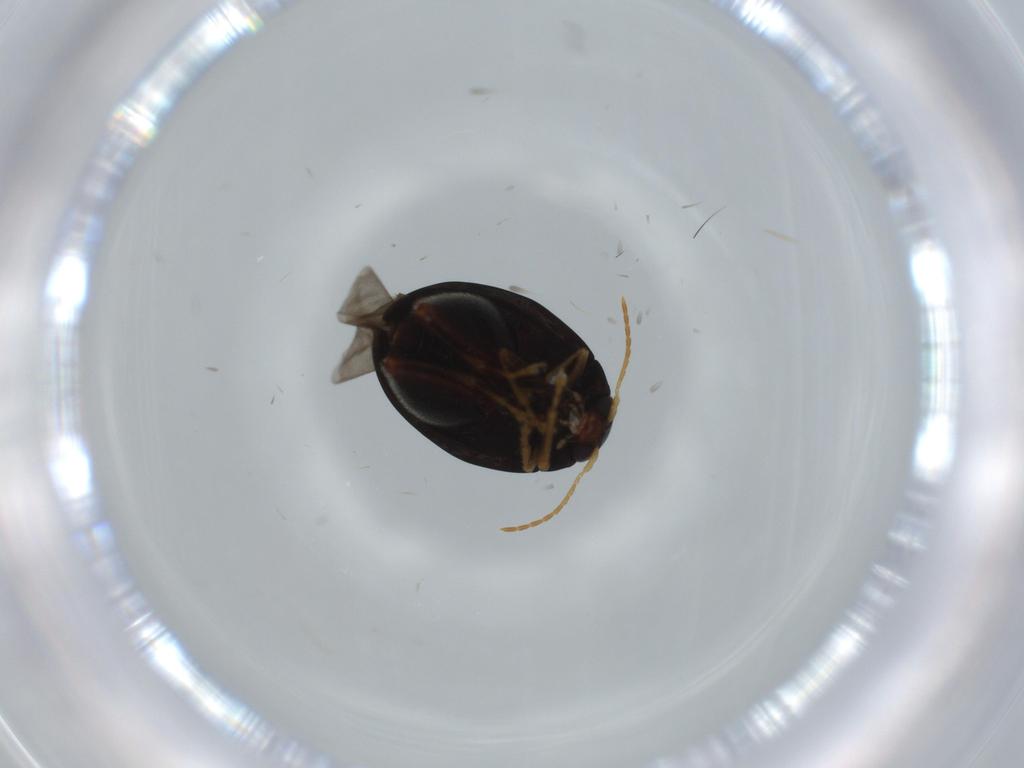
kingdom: Animalia
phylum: Arthropoda
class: Insecta
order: Coleoptera
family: Chrysomelidae
